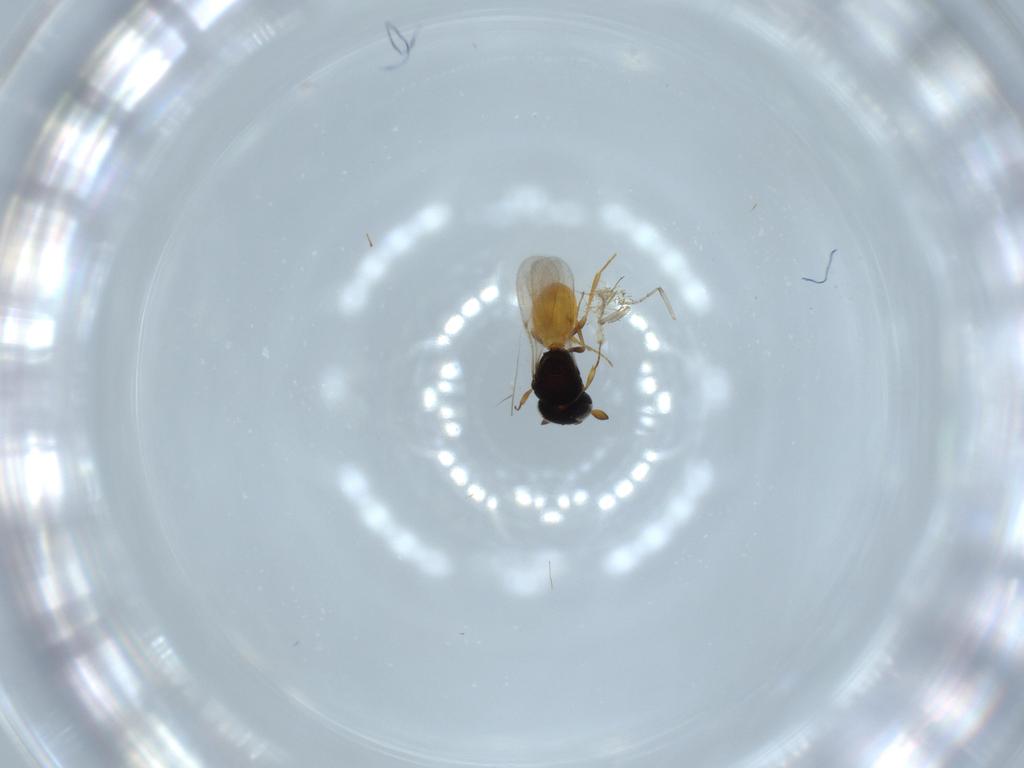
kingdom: Animalia
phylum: Arthropoda
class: Insecta
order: Hymenoptera
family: Scelionidae
